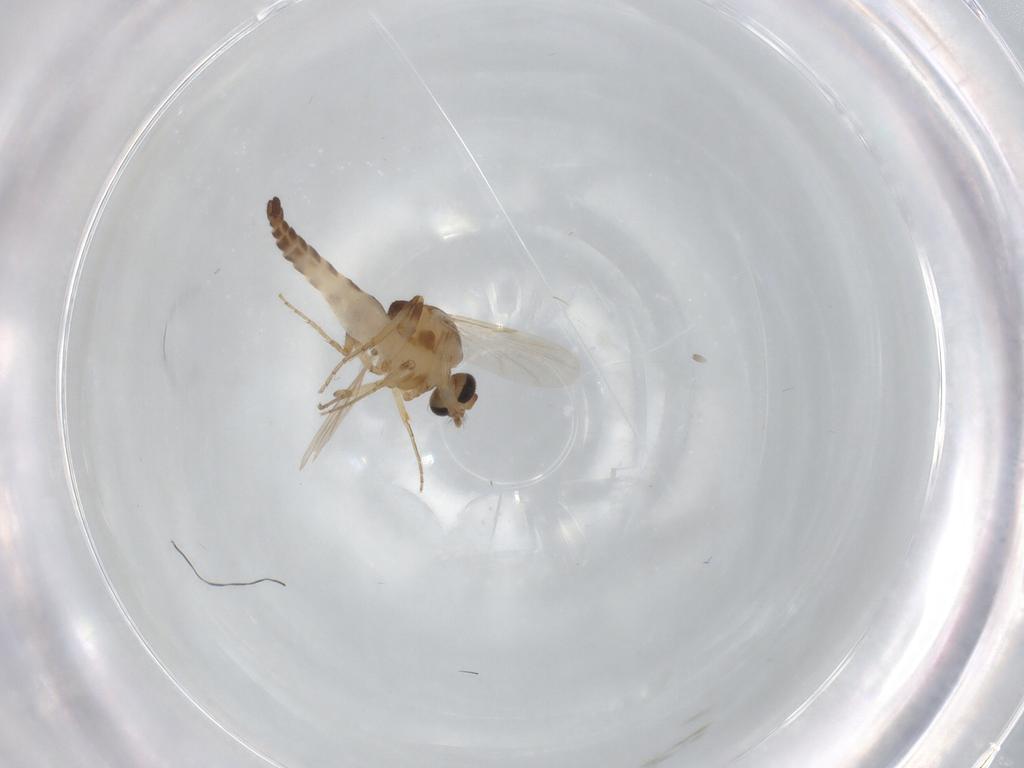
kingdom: Animalia
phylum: Arthropoda
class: Insecta
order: Diptera
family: Ceratopogonidae
